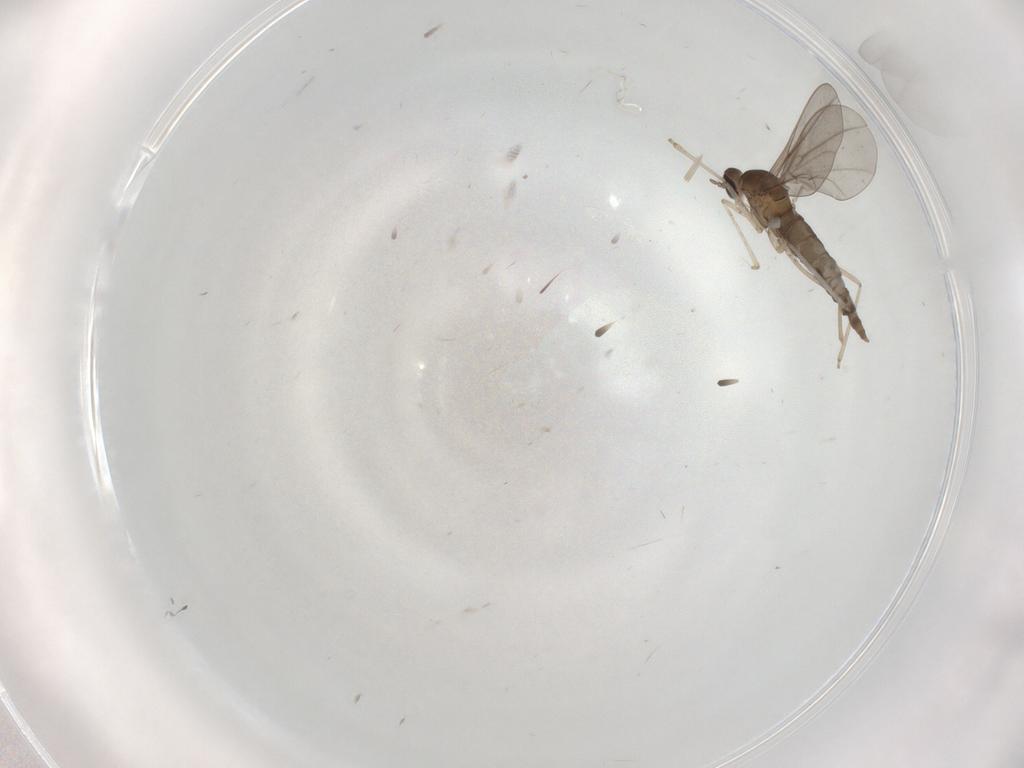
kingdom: Animalia
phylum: Arthropoda
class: Insecta
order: Diptera
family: Cecidomyiidae
